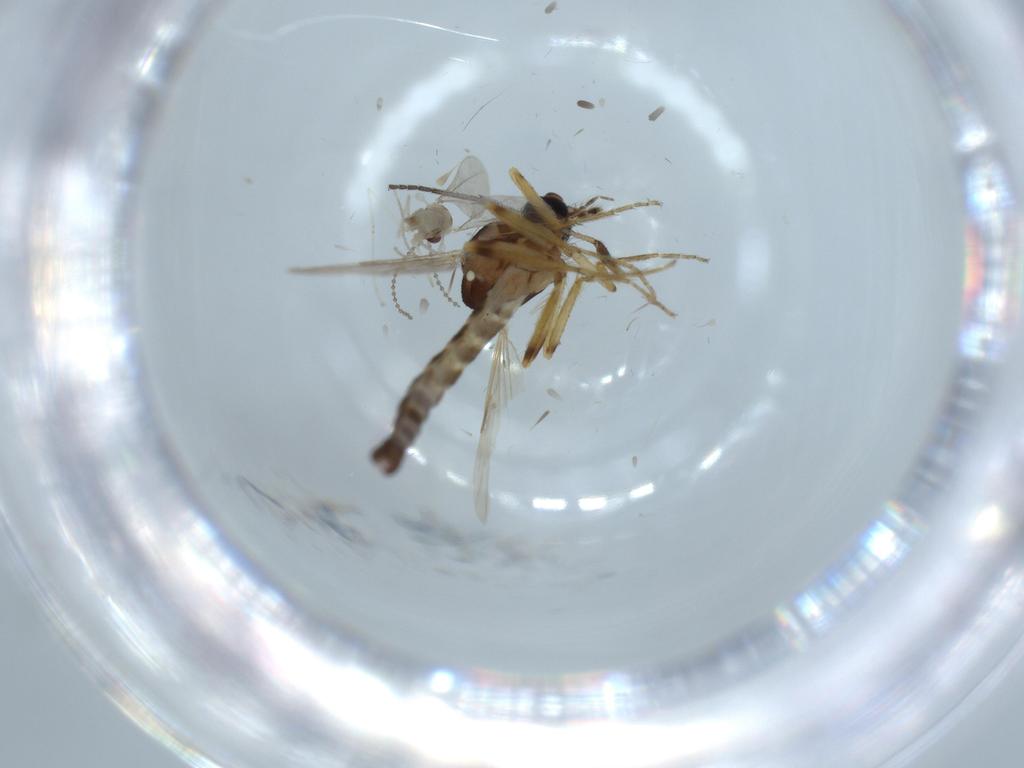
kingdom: Animalia
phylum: Arthropoda
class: Insecta
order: Diptera
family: Ceratopogonidae
